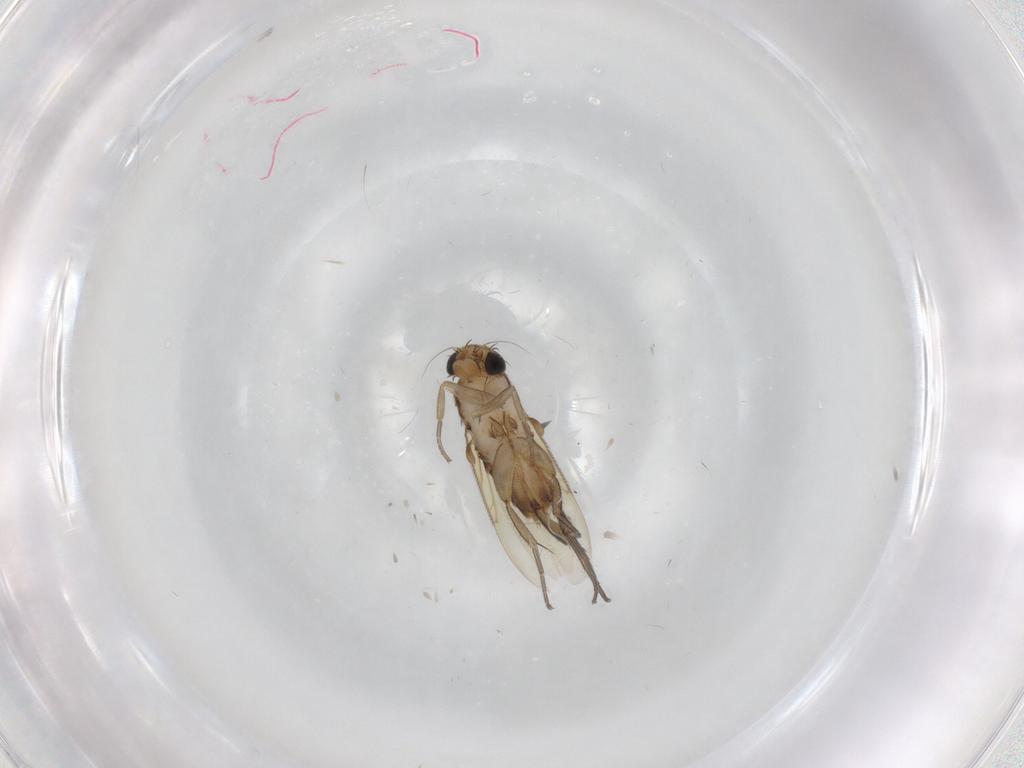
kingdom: Animalia
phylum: Arthropoda
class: Insecta
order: Diptera
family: Phoridae
